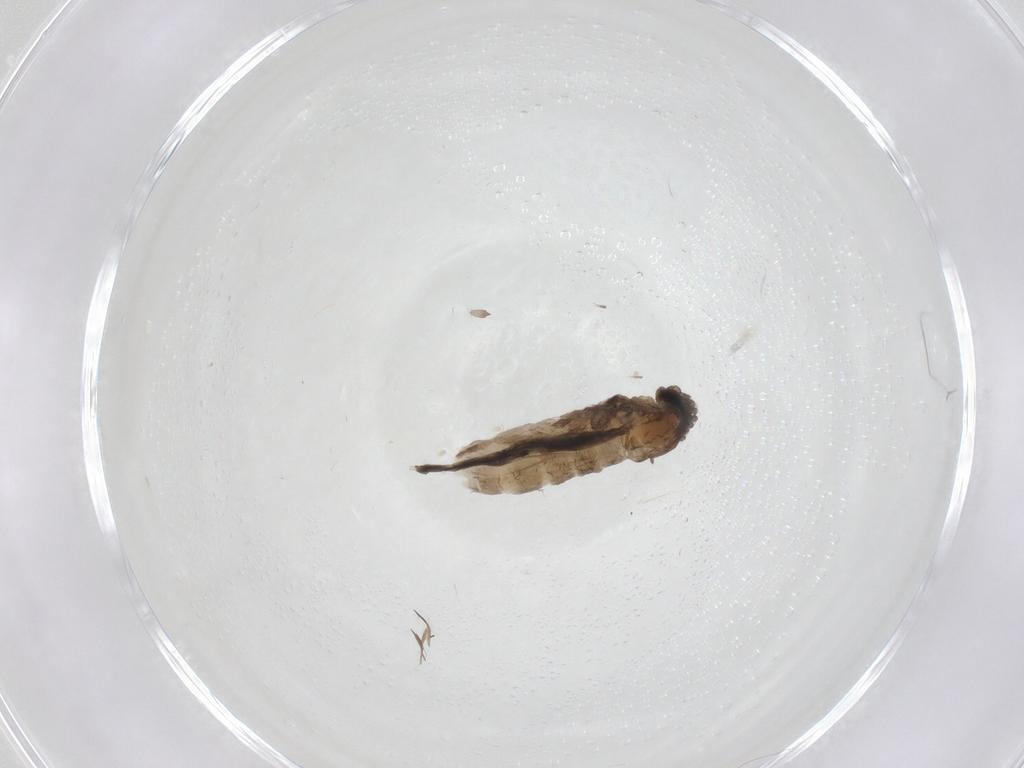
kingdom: Animalia
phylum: Arthropoda
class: Insecta
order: Diptera
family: Cecidomyiidae
